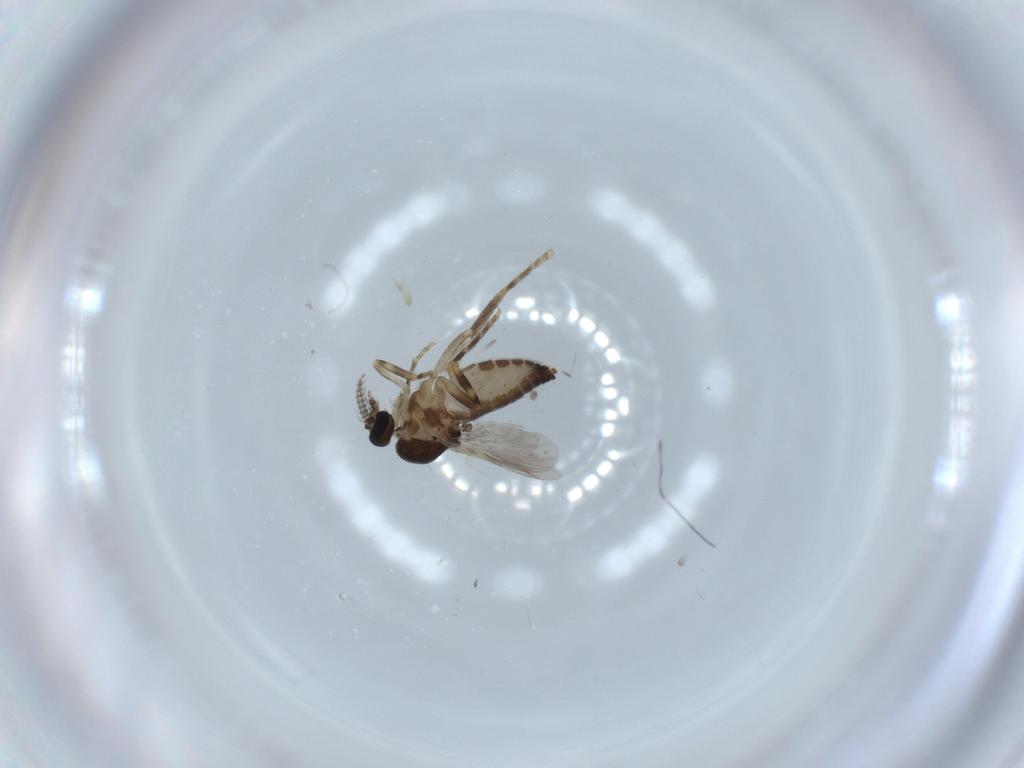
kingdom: Animalia
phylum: Arthropoda
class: Insecta
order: Diptera
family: Ceratopogonidae
